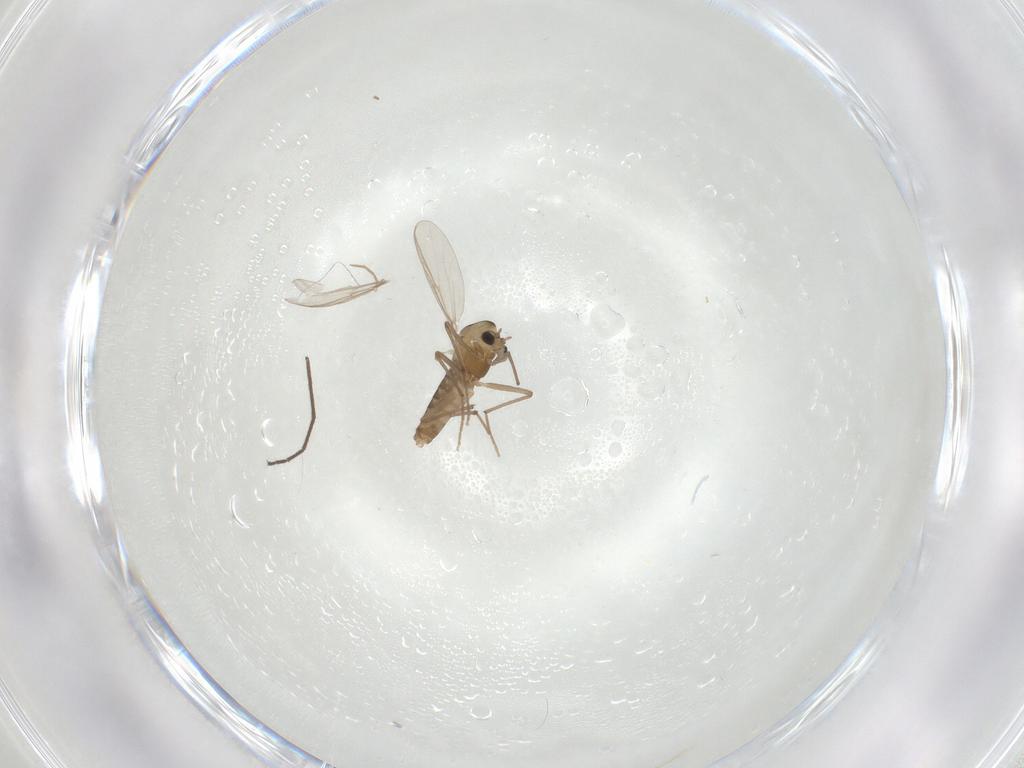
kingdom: Animalia
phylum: Arthropoda
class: Insecta
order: Diptera
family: Chironomidae
